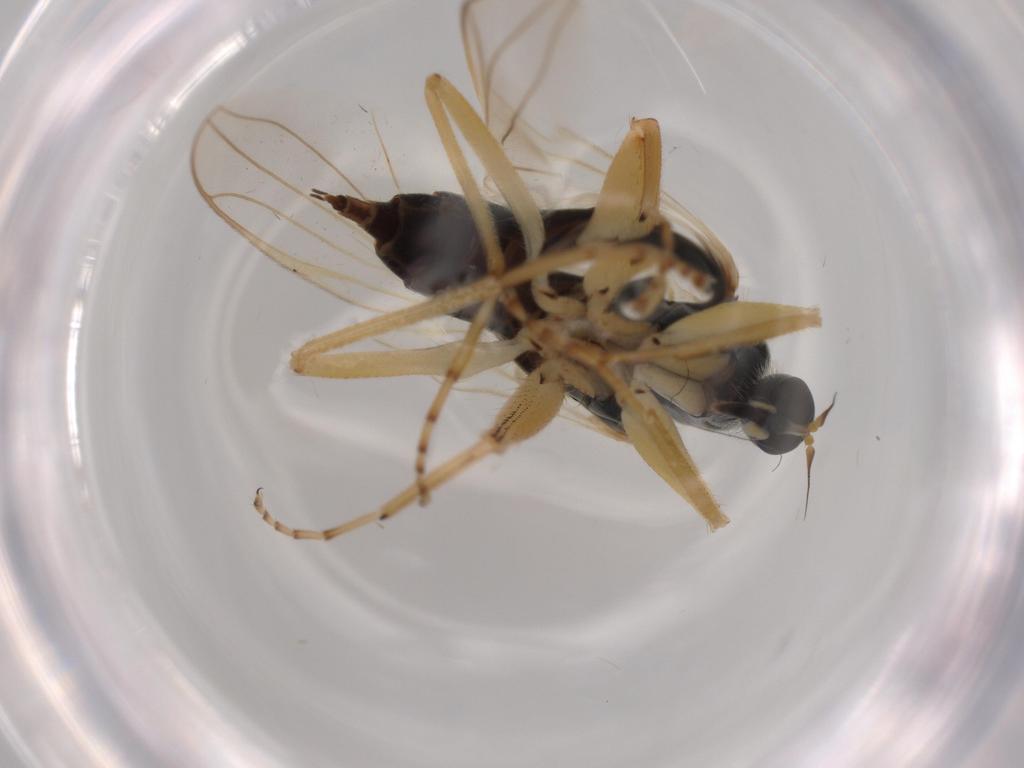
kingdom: Animalia
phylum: Arthropoda
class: Insecta
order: Diptera
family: Hybotidae
